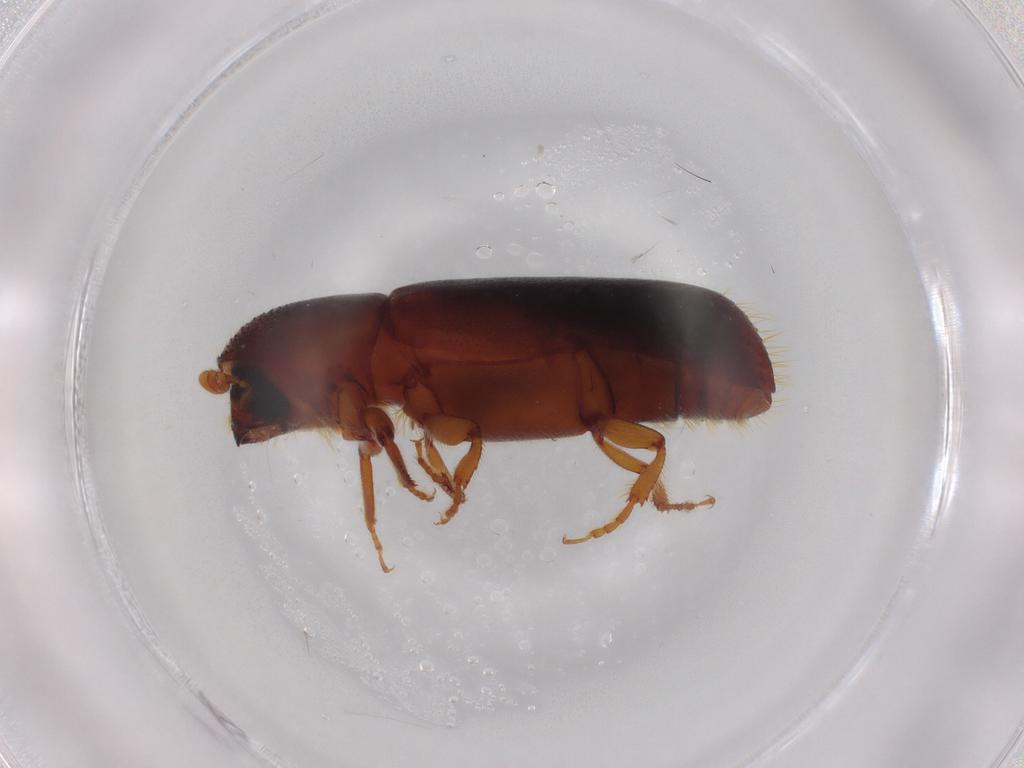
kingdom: Animalia
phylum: Arthropoda
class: Insecta
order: Coleoptera
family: Curculionidae
